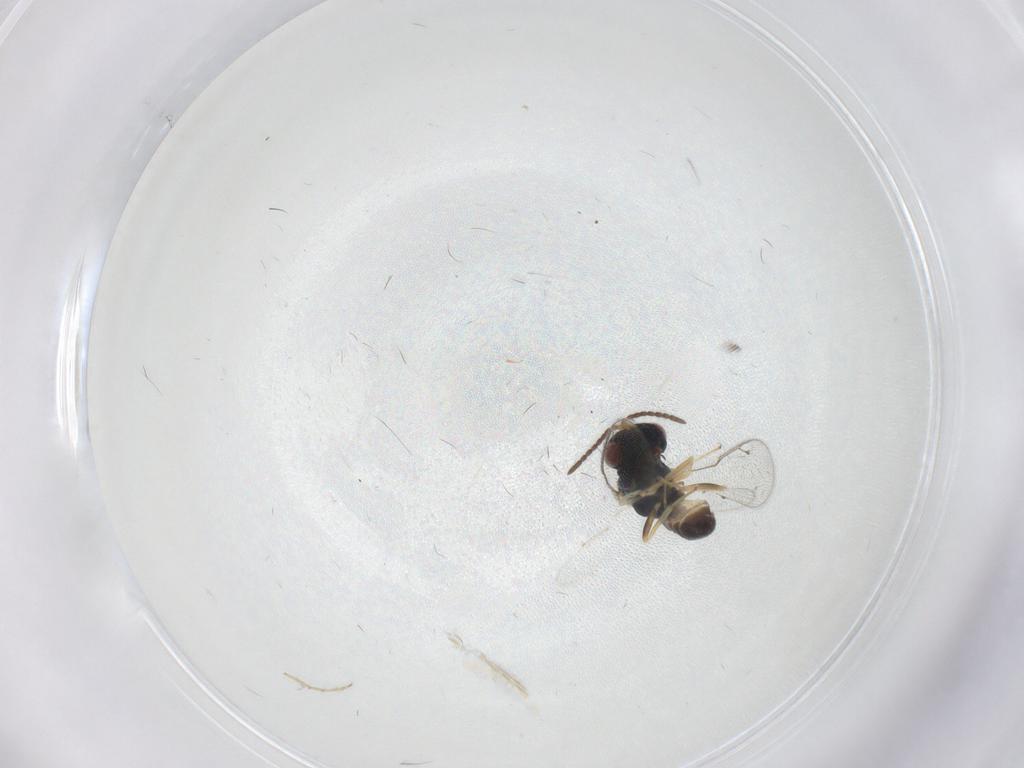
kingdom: Animalia
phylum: Arthropoda
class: Insecta
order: Hymenoptera
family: Pteromalidae
